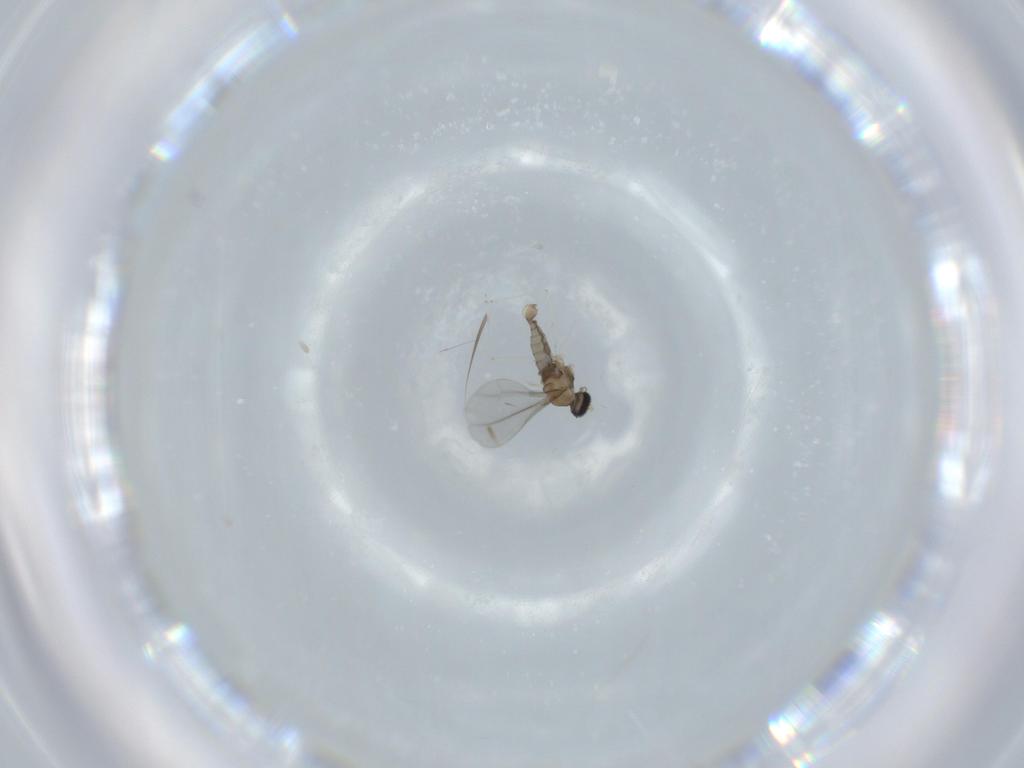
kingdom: Animalia
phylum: Arthropoda
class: Insecta
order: Diptera
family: Cecidomyiidae
